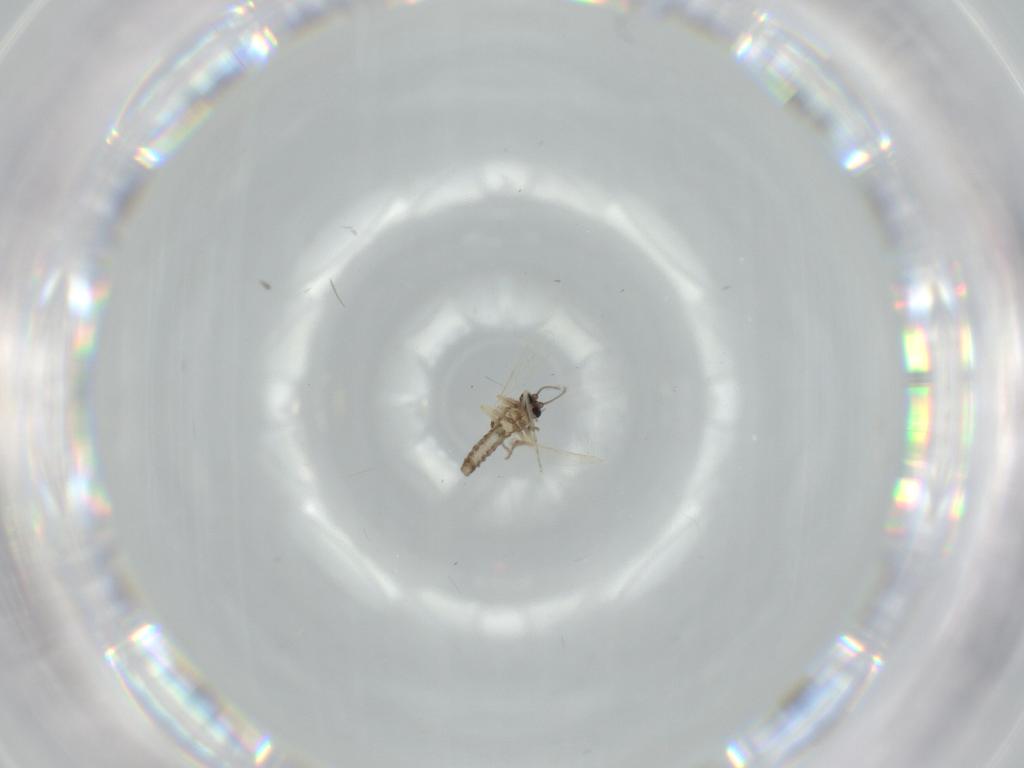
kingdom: Animalia
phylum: Arthropoda
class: Insecta
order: Diptera
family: Ceratopogonidae
